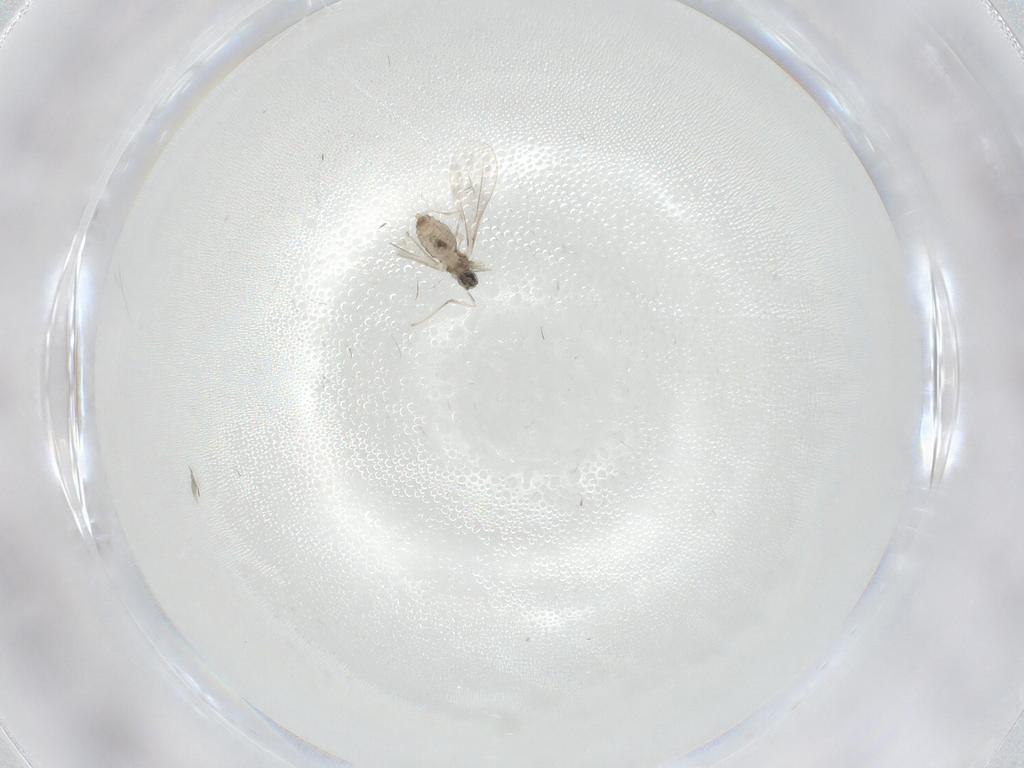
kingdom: Animalia
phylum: Arthropoda
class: Insecta
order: Diptera
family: Cecidomyiidae
